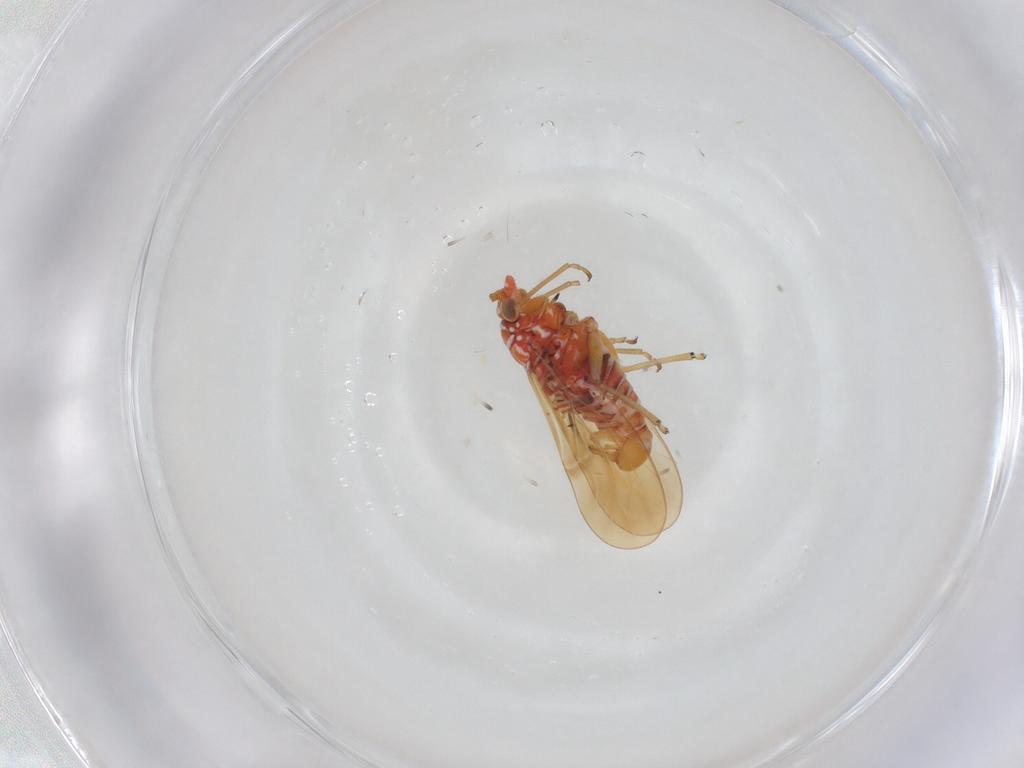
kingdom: Animalia
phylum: Arthropoda
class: Insecta
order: Hemiptera
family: Psyllidae
